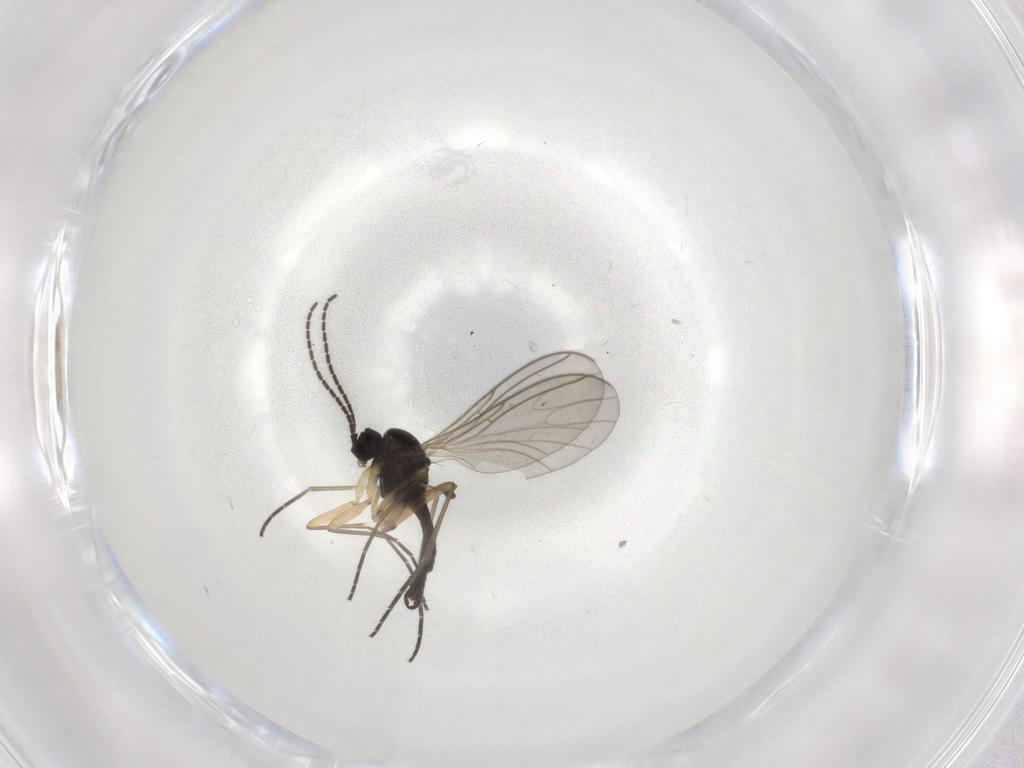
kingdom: Animalia
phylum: Arthropoda
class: Insecta
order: Diptera
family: Sciaridae
